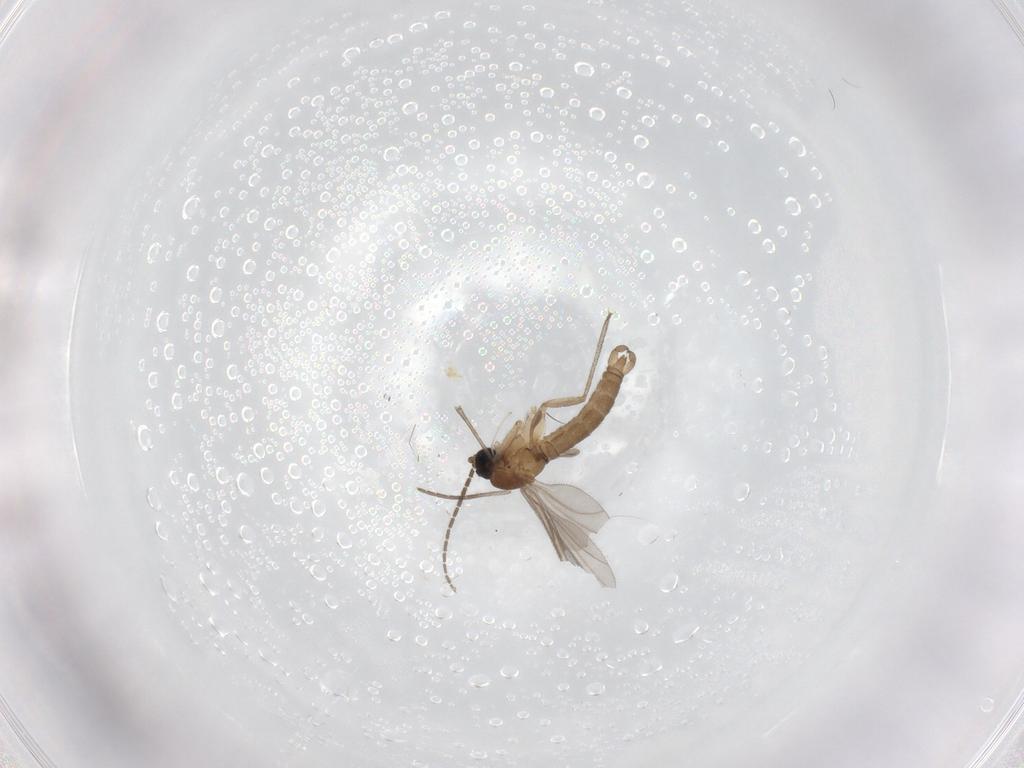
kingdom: Animalia
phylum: Arthropoda
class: Insecta
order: Diptera
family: Sciaridae
